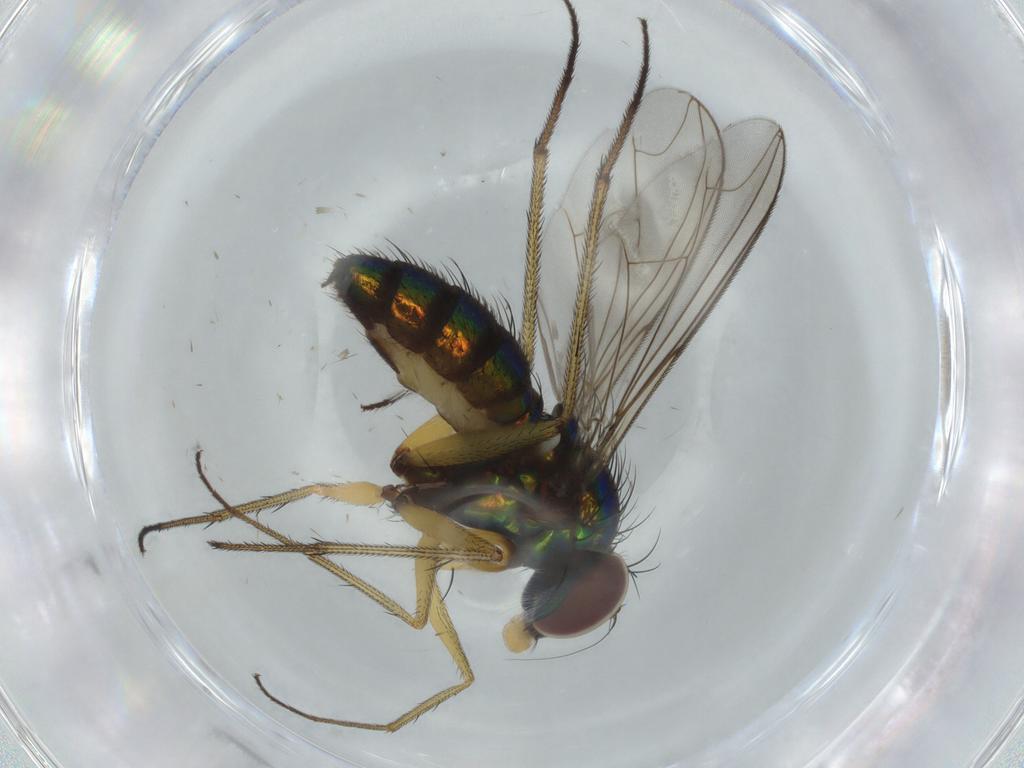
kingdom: Animalia
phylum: Arthropoda
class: Insecta
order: Diptera
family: Dolichopodidae
